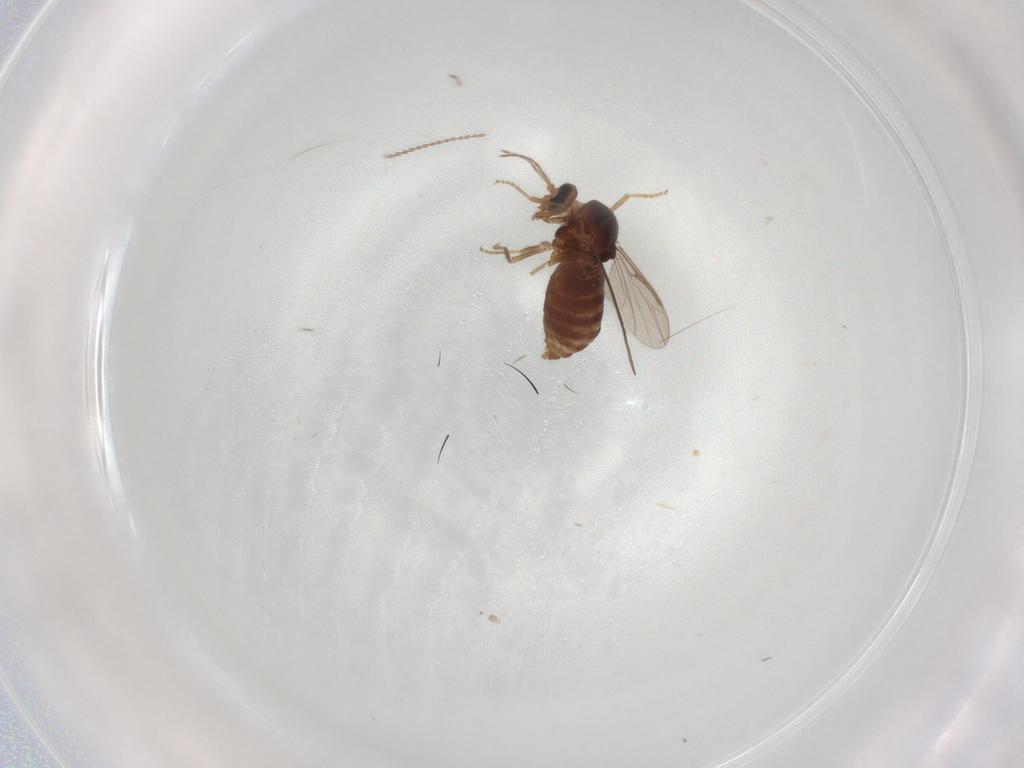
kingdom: Animalia
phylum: Arthropoda
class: Insecta
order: Diptera
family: Ceratopogonidae
